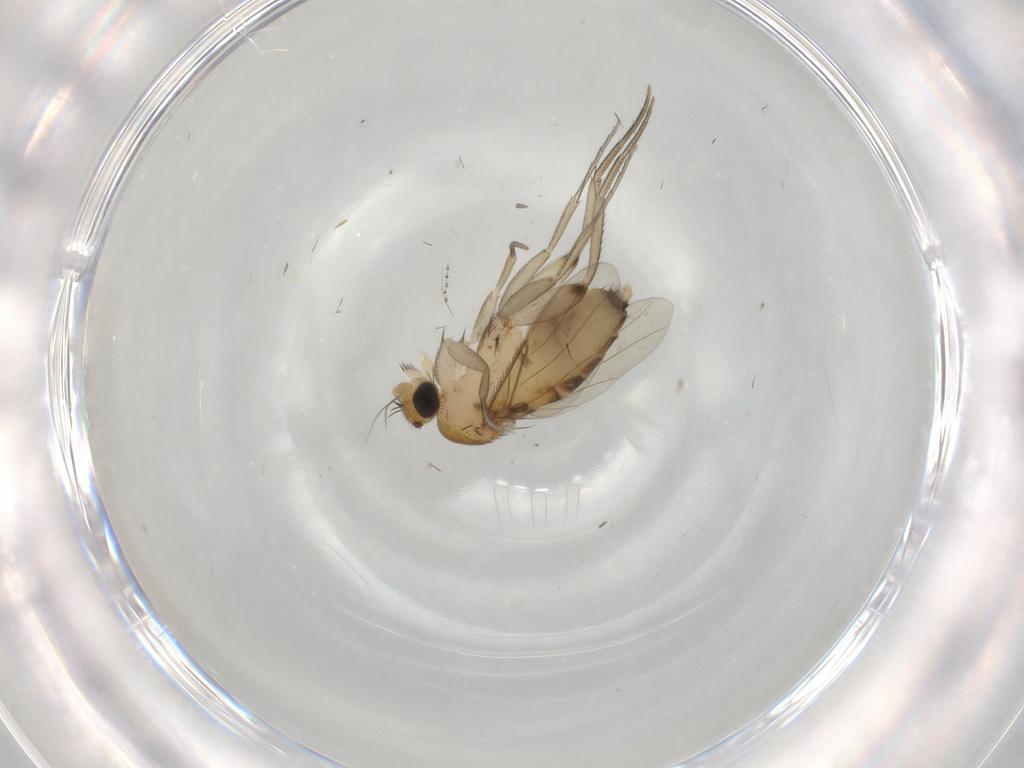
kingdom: Animalia
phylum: Arthropoda
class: Insecta
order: Diptera
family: Phoridae
